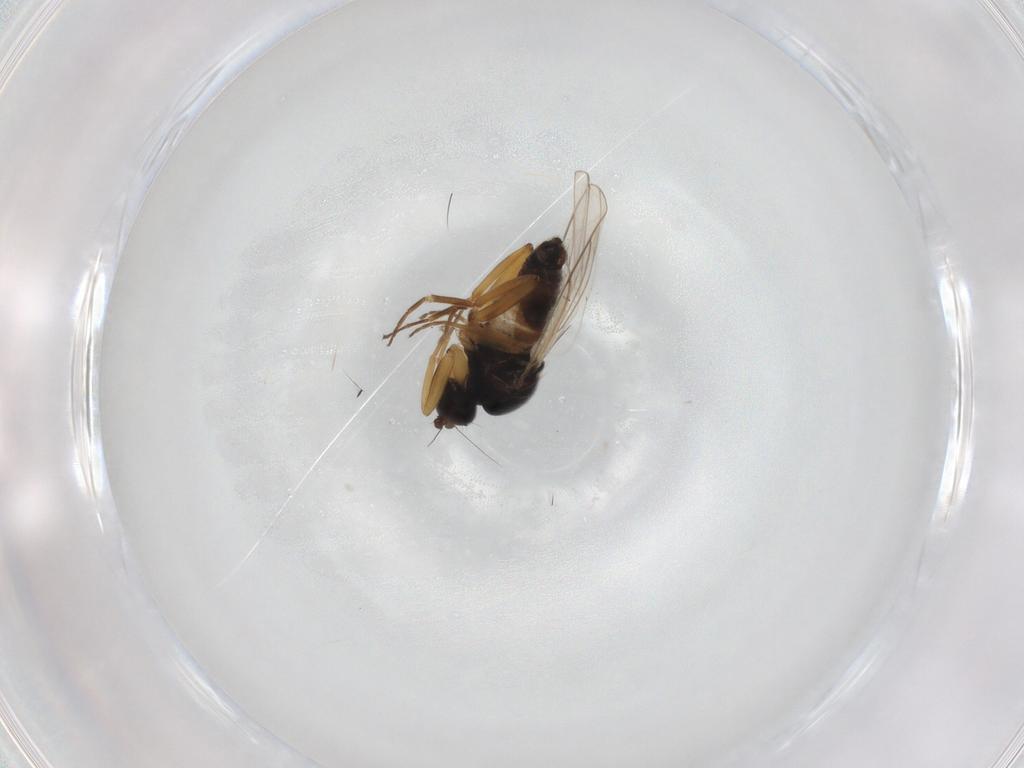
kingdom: Animalia
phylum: Arthropoda
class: Insecta
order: Diptera
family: Hybotidae
